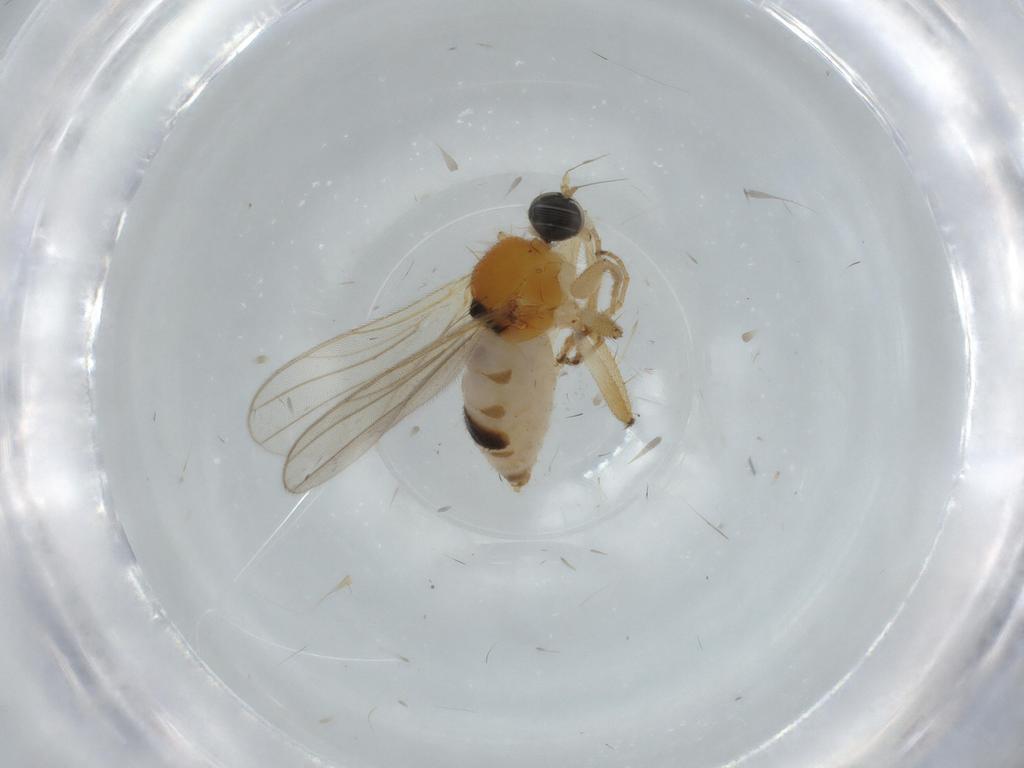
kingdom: Animalia
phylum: Arthropoda
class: Insecta
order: Diptera
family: Hybotidae
